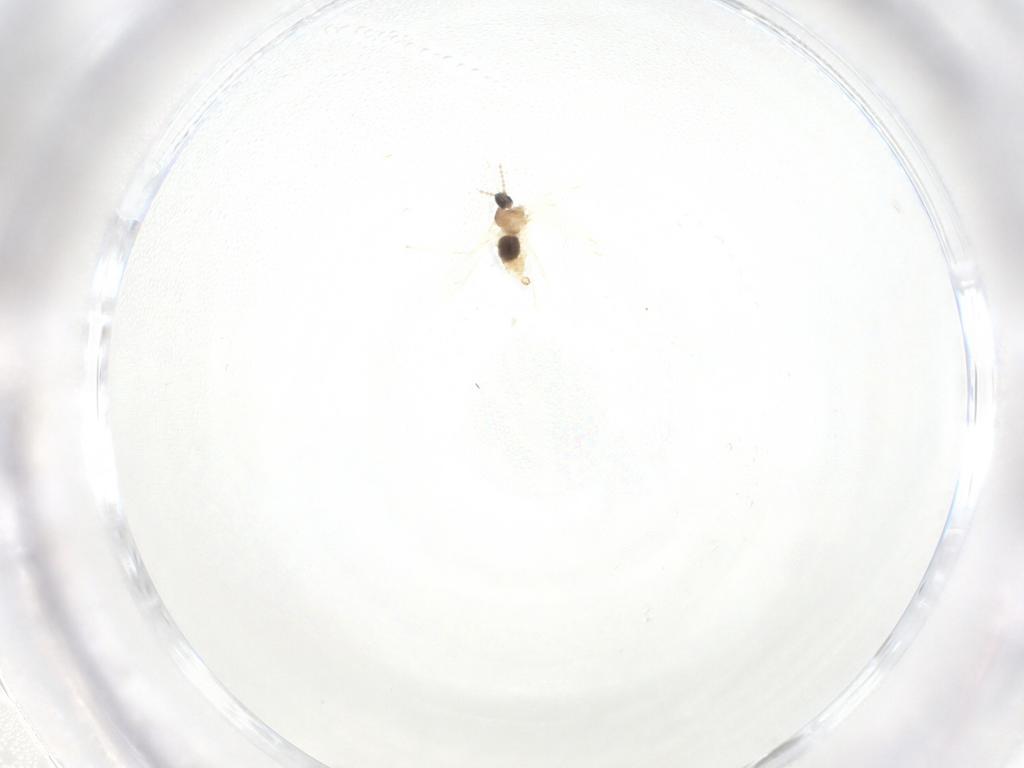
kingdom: Animalia
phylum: Arthropoda
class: Insecta
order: Diptera
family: Cecidomyiidae
